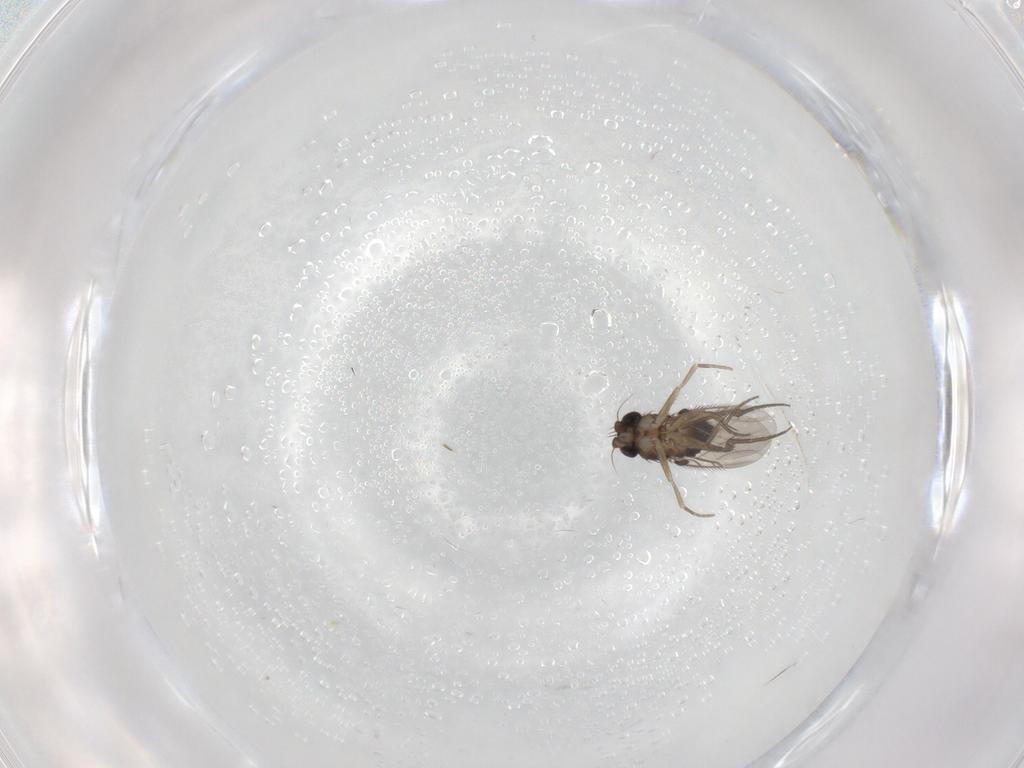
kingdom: Animalia
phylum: Arthropoda
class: Insecta
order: Diptera
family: Phoridae
